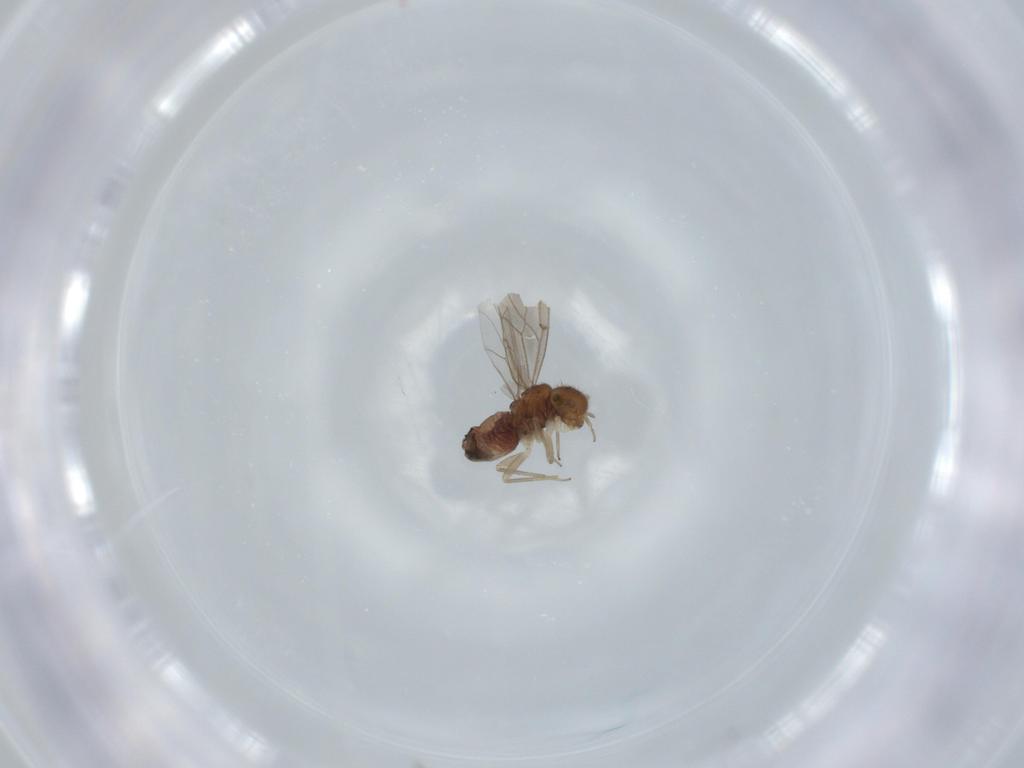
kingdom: Animalia
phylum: Arthropoda
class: Insecta
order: Psocodea
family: Ectopsocidae
